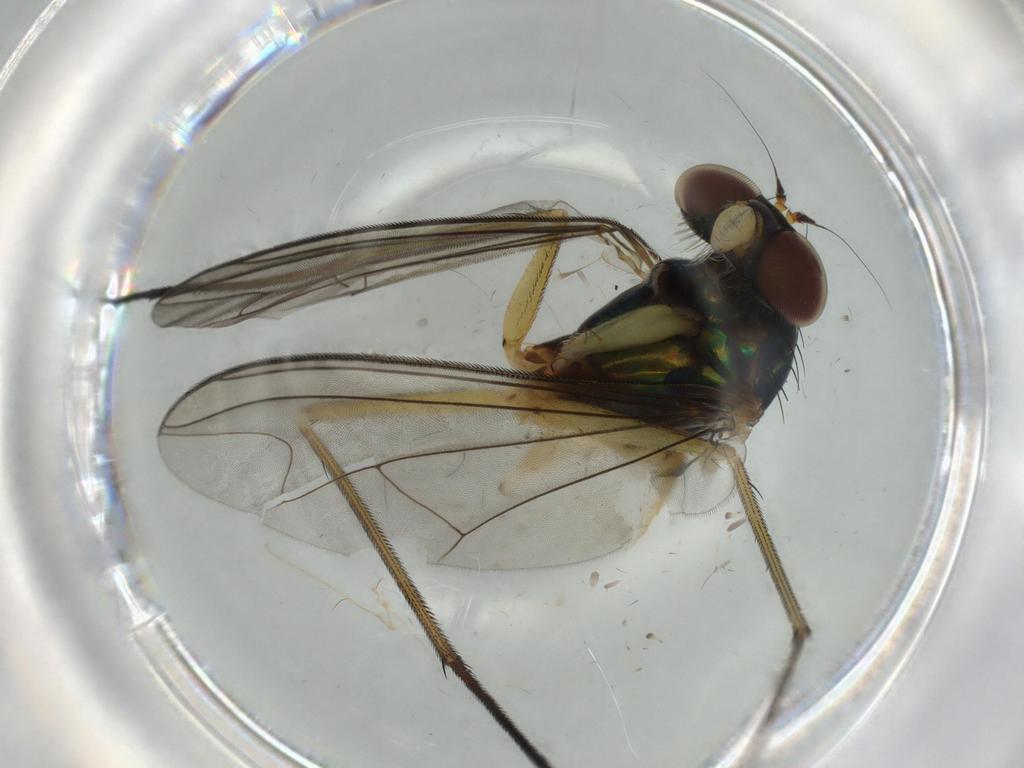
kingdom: Animalia
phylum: Arthropoda
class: Insecta
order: Diptera
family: Dolichopodidae
